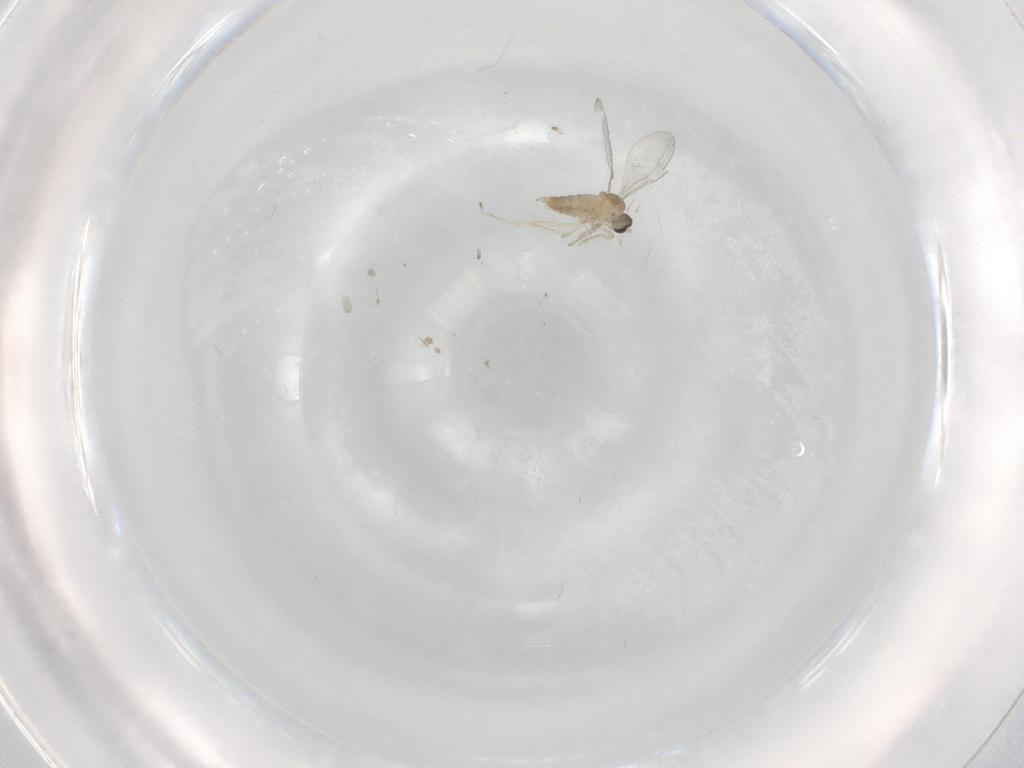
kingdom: Animalia
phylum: Arthropoda
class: Insecta
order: Diptera
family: Cecidomyiidae
